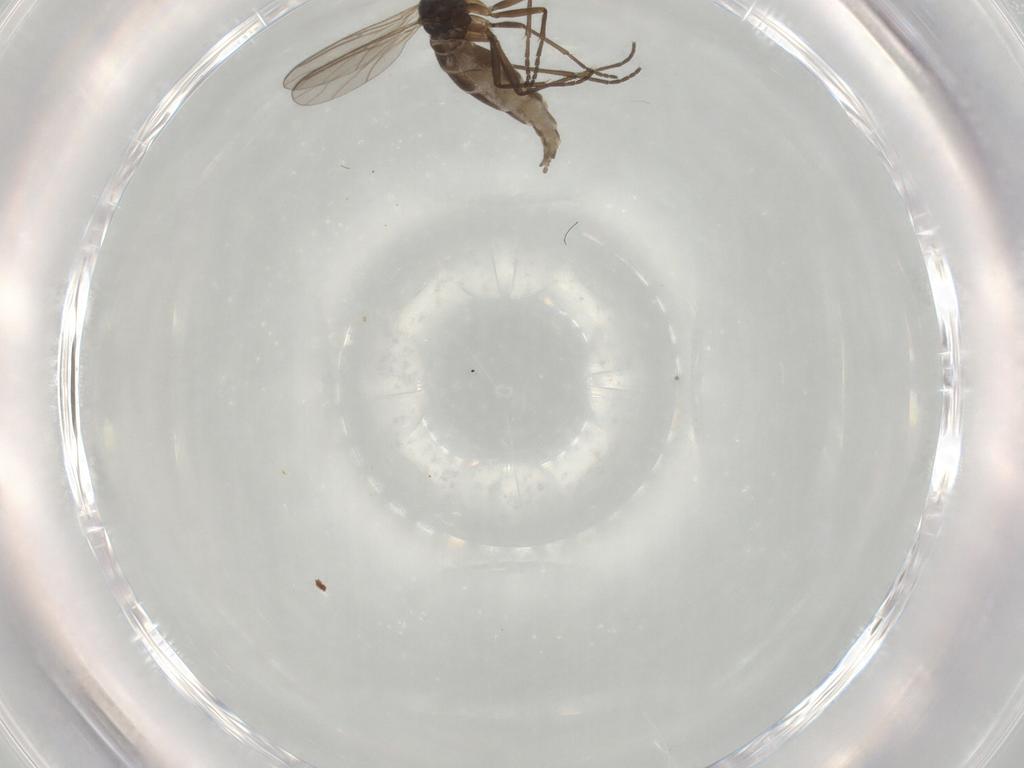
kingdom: Animalia
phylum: Arthropoda
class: Insecta
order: Diptera
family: Sciaridae
